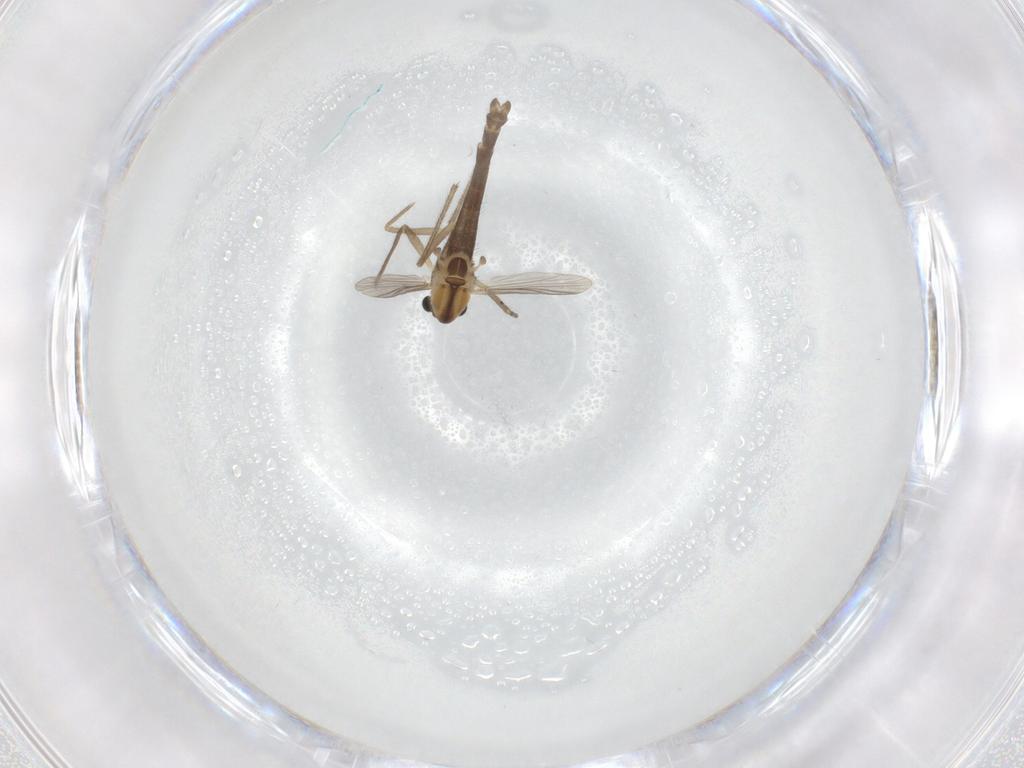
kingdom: Animalia
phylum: Arthropoda
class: Insecta
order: Diptera
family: Chironomidae
